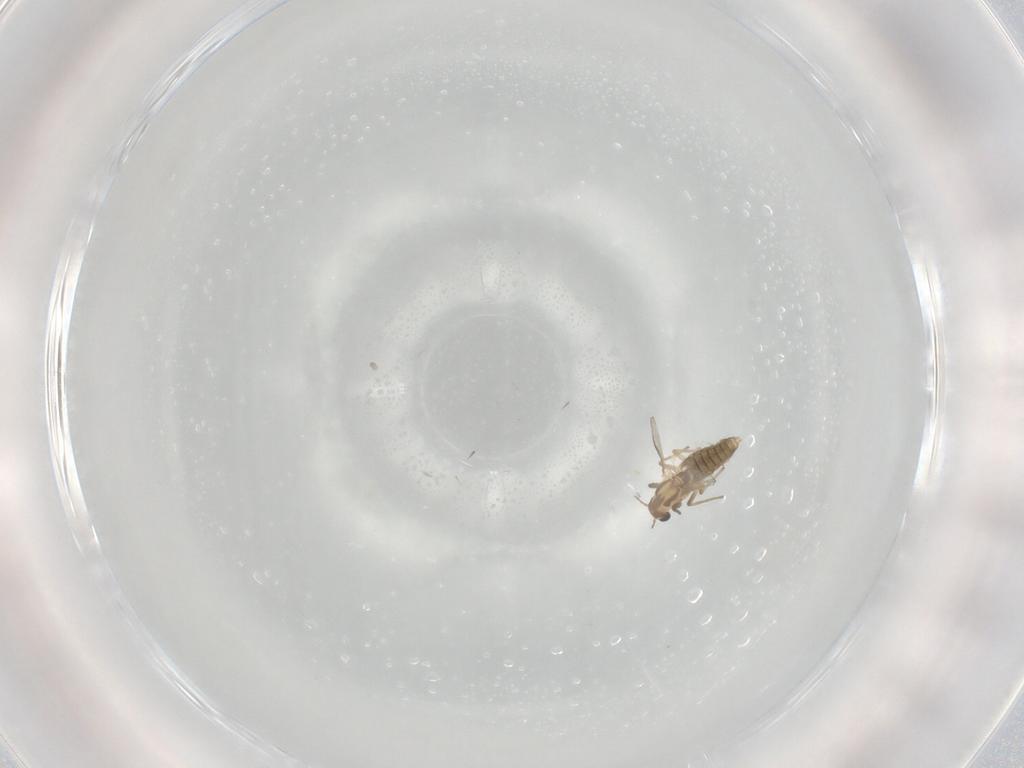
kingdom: Animalia
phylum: Arthropoda
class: Insecta
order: Diptera
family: Chironomidae
